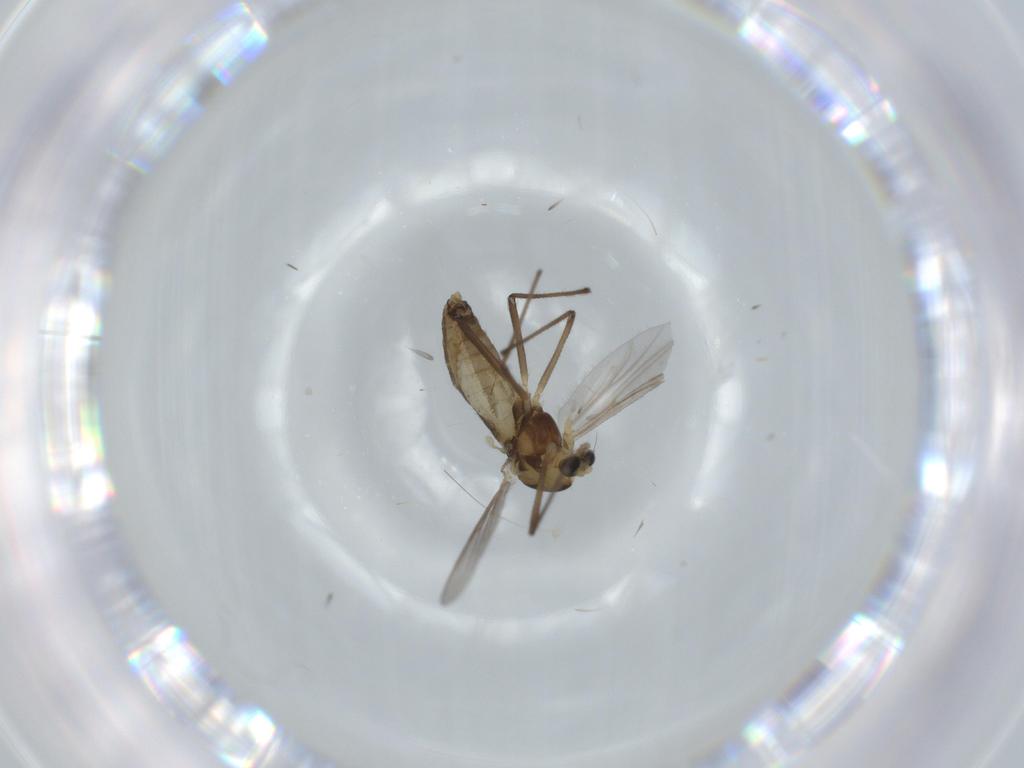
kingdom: Animalia
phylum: Arthropoda
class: Insecta
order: Diptera
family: Chironomidae
